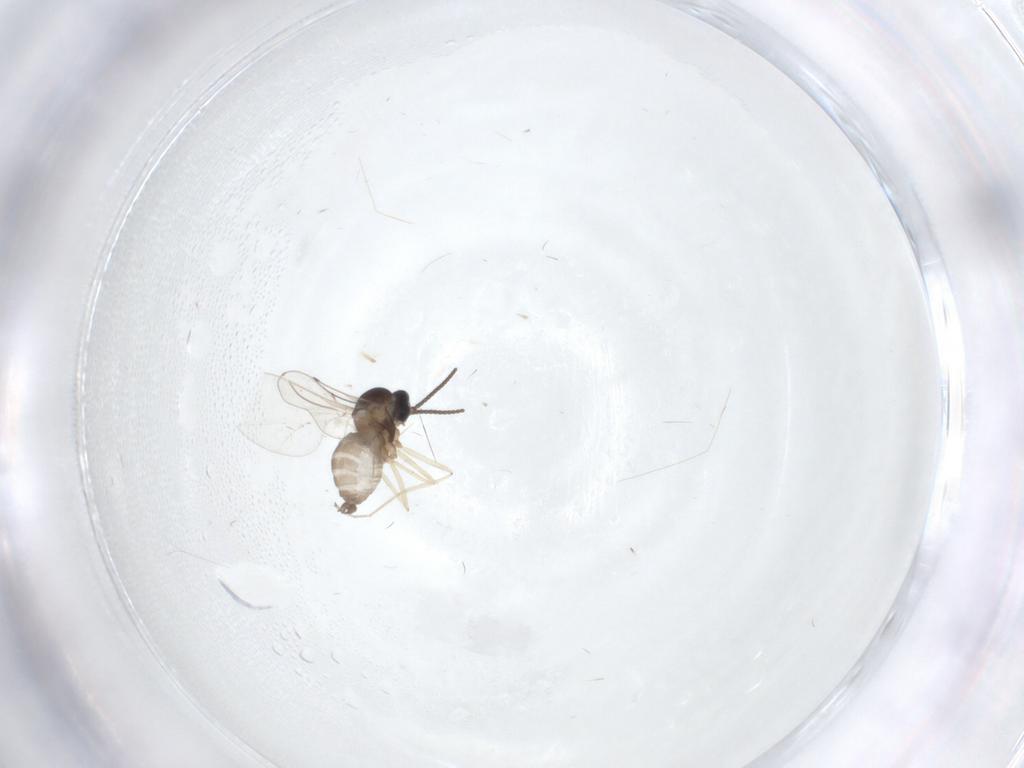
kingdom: Animalia
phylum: Arthropoda
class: Insecta
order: Diptera
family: Cecidomyiidae
